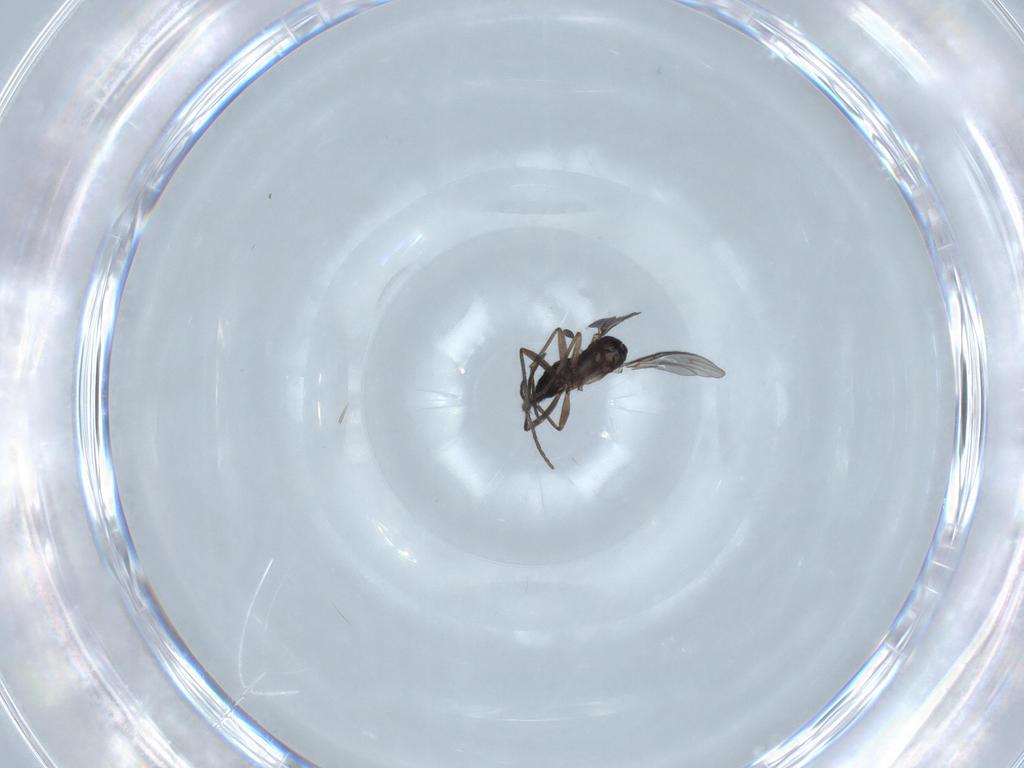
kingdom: Animalia
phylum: Arthropoda
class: Insecta
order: Diptera
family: Sciaridae
